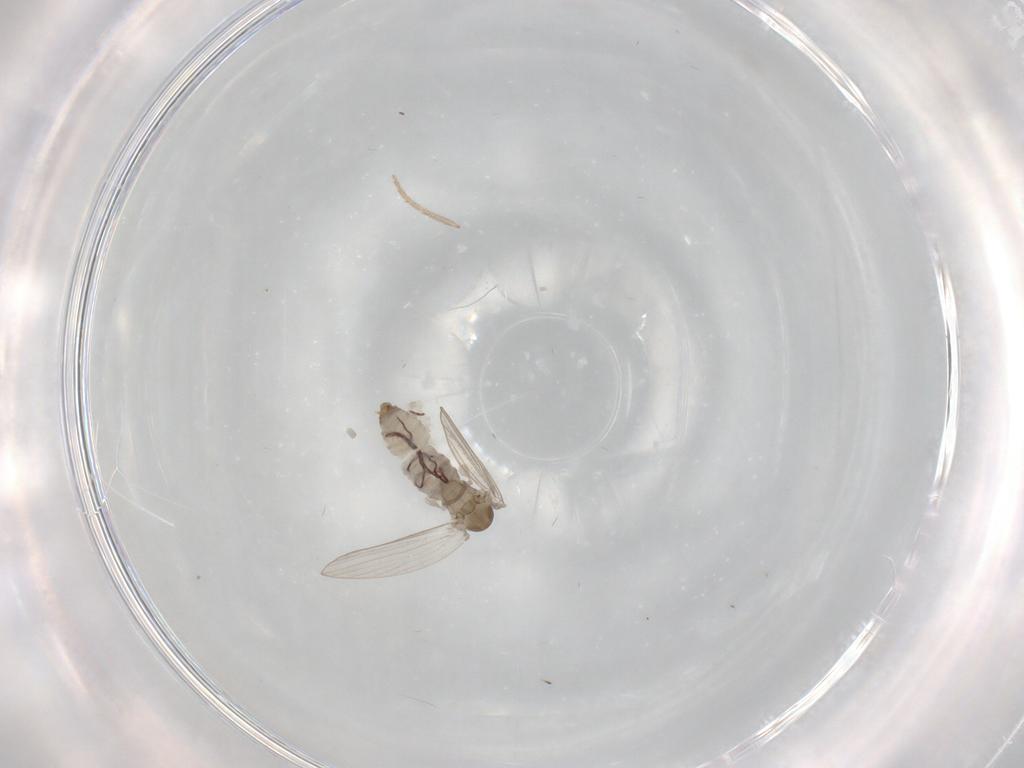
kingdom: Animalia
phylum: Arthropoda
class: Insecta
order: Diptera
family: Psychodidae
